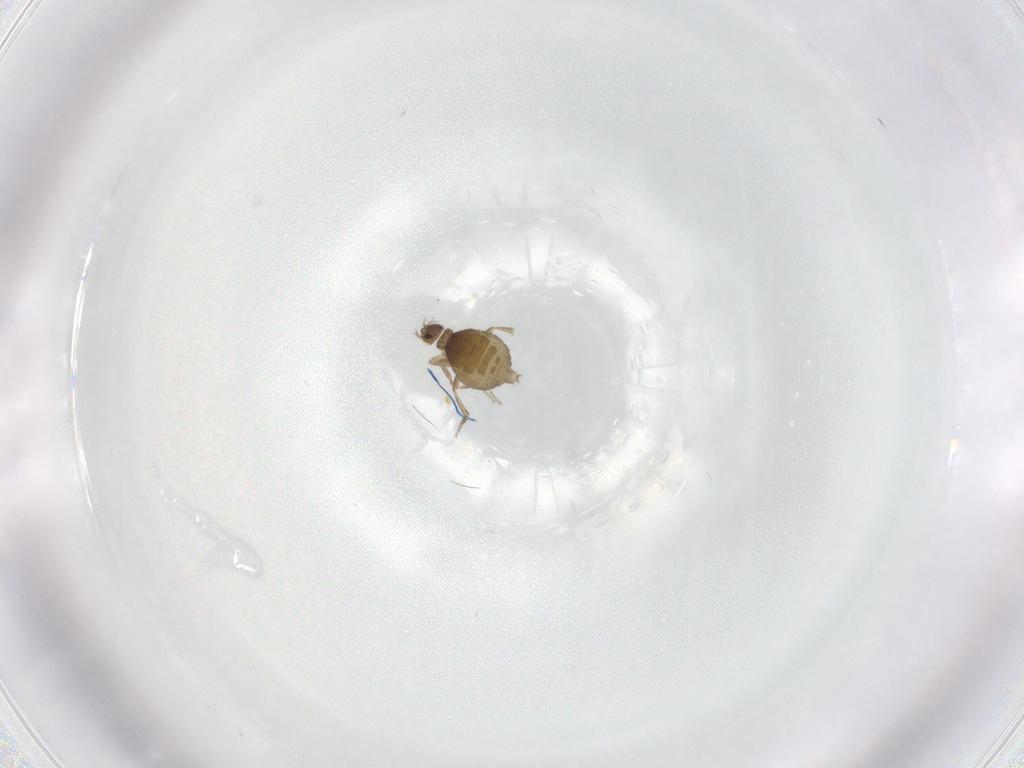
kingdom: Animalia
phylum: Arthropoda
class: Insecta
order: Diptera
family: Phoridae
